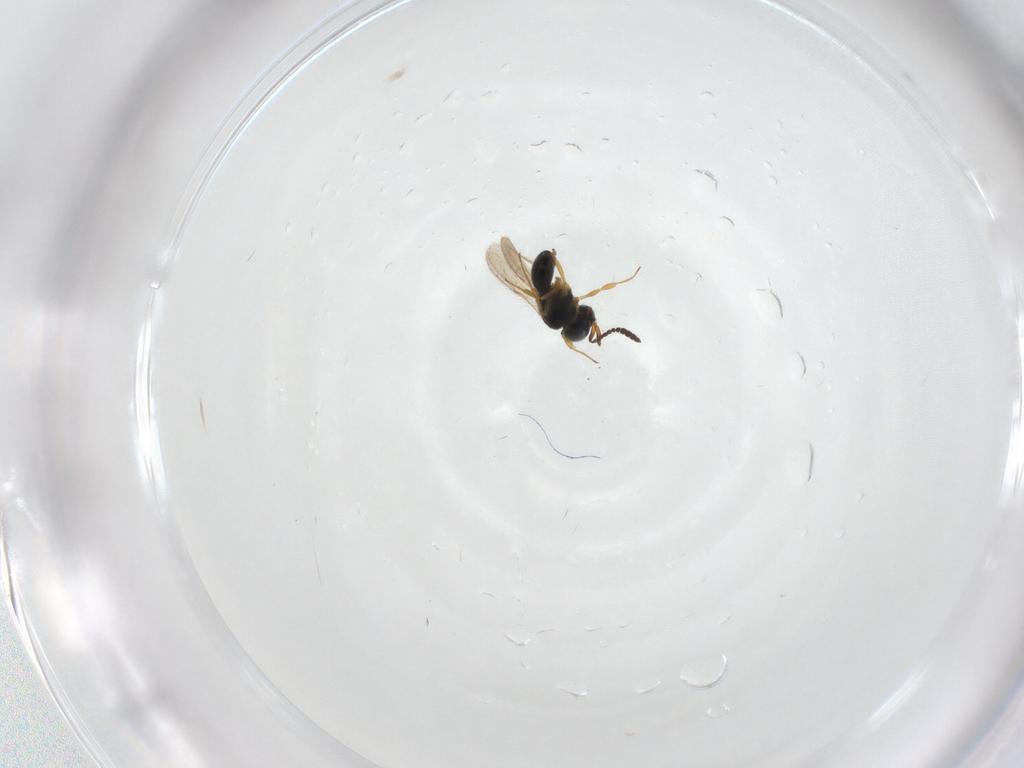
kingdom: Animalia
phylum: Arthropoda
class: Insecta
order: Hymenoptera
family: Scelionidae
